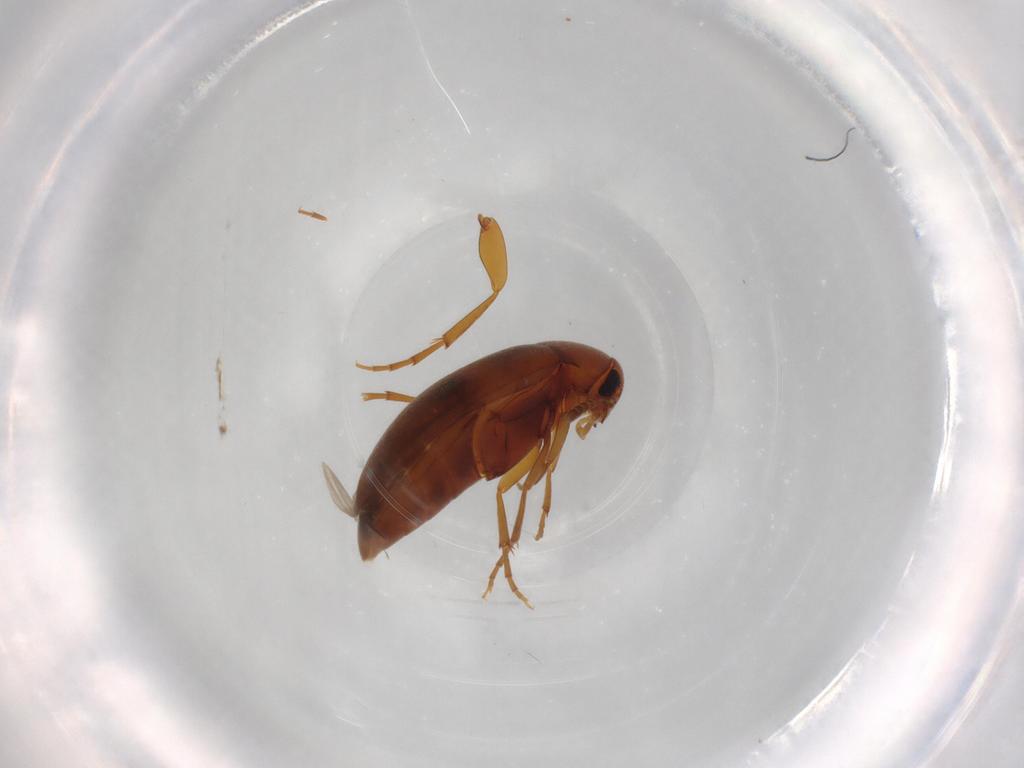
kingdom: Animalia
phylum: Arthropoda
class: Insecta
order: Coleoptera
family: Scraptiidae
